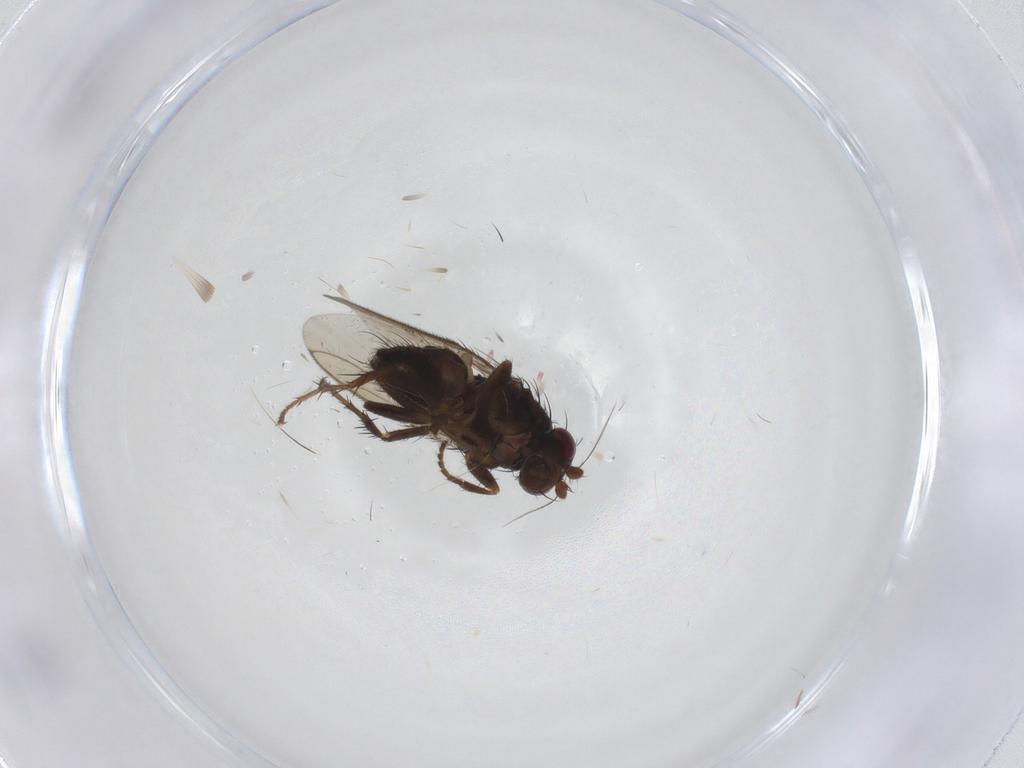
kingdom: Animalia
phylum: Arthropoda
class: Insecta
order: Diptera
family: Sphaeroceridae
